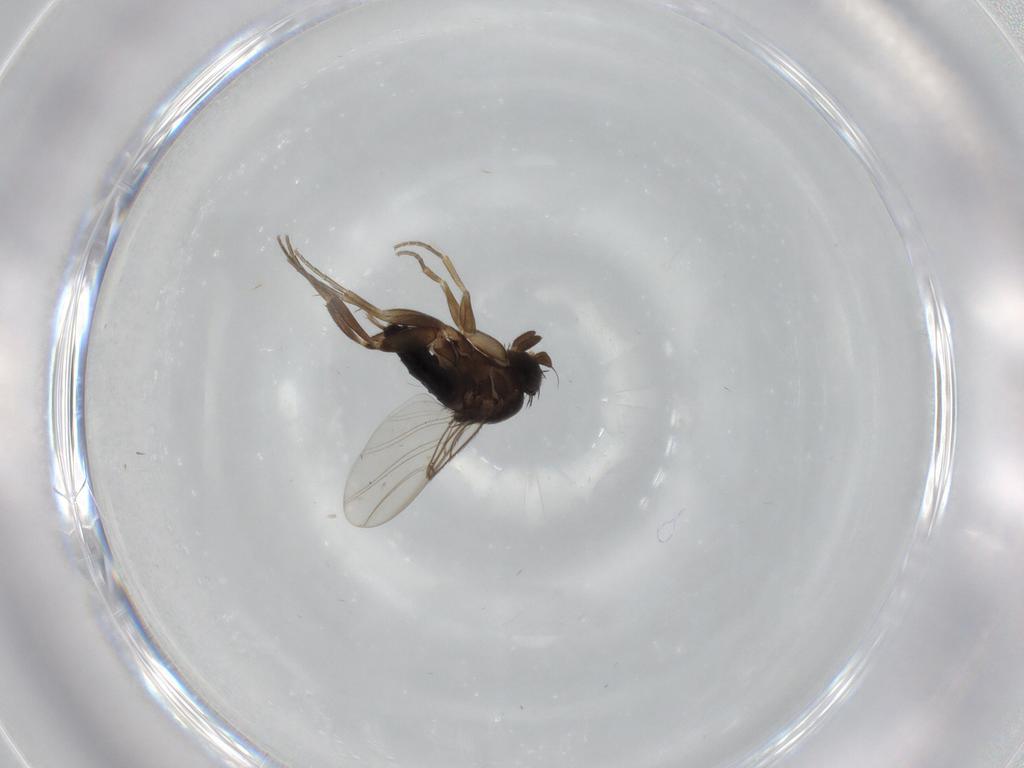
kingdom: Animalia
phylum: Arthropoda
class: Insecta
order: Diptera
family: Phoridae
